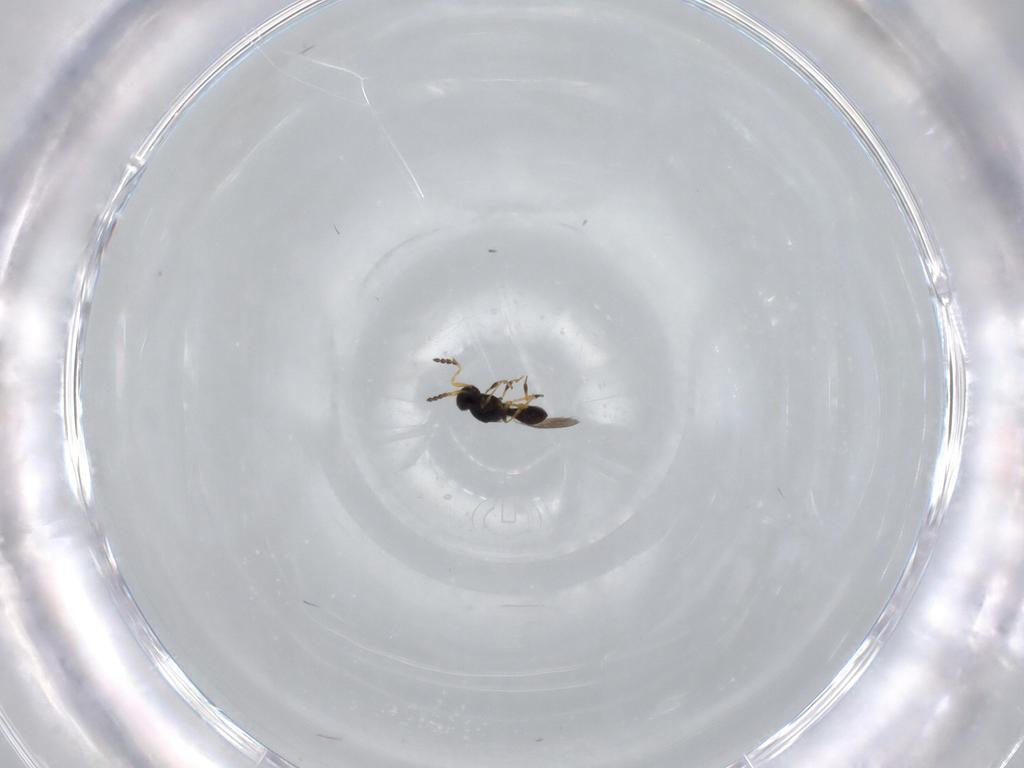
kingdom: Animalia
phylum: Arthropoda
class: Insecta
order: Hymenoptera
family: Platygastridae
